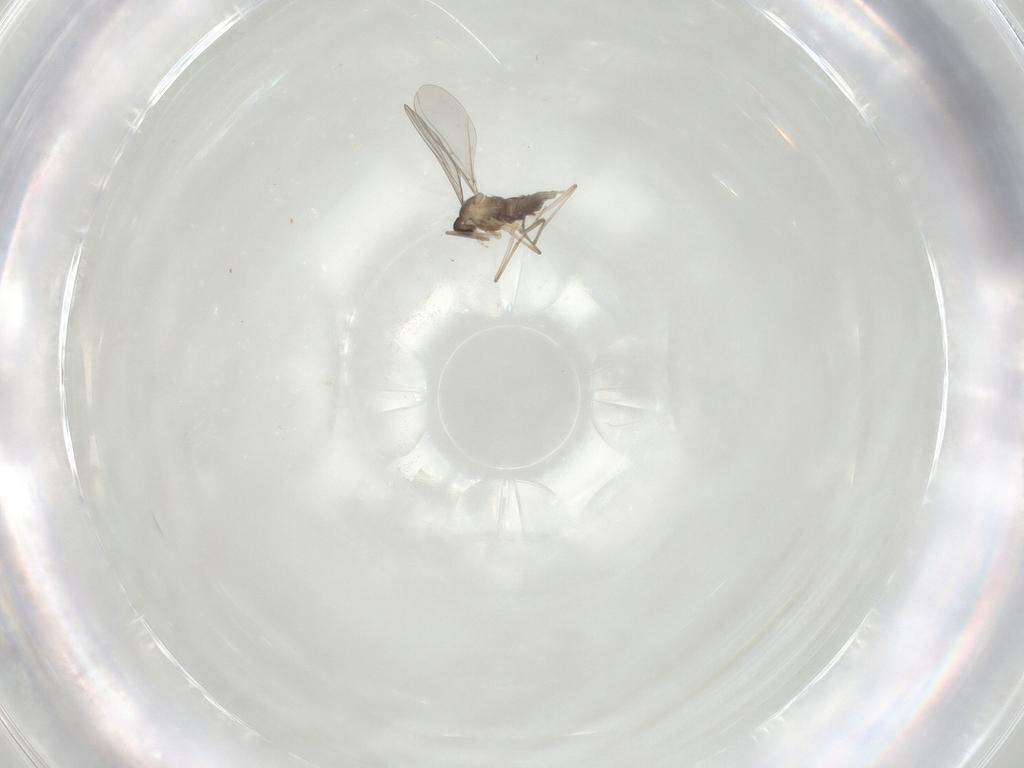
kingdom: Animalia
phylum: Arthropoda
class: Insecta
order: Diptera
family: Cecidomyiidae
